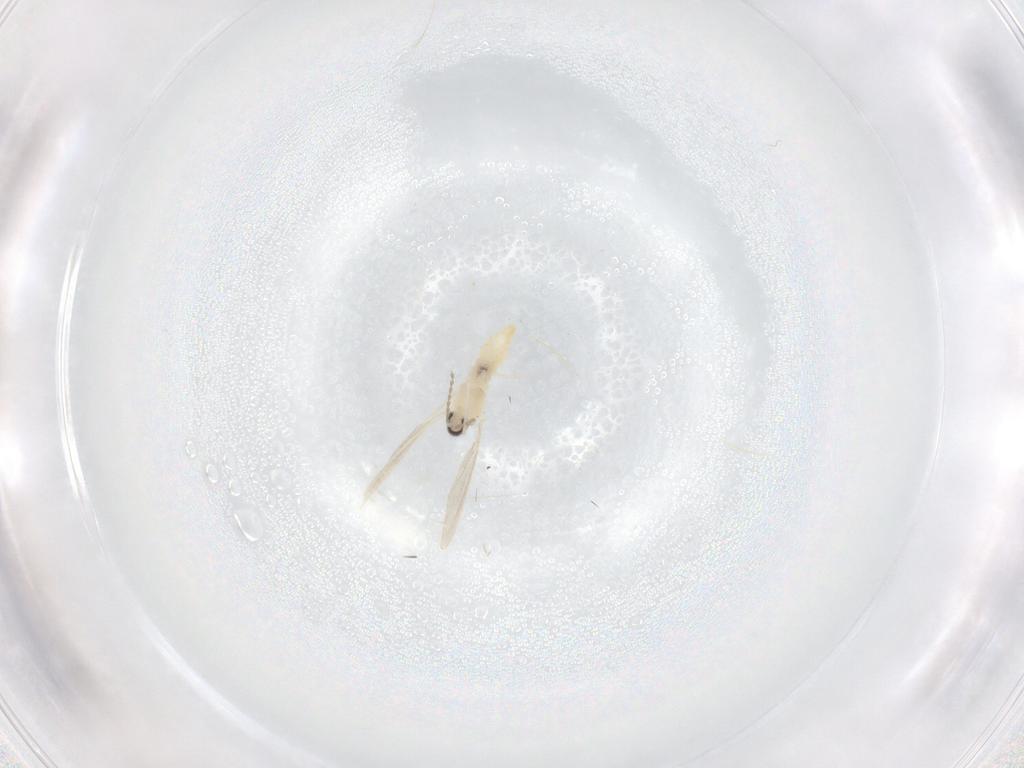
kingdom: Animalia
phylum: Arthropoda
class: Insecta
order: Diptera
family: Cecidomyiidae
